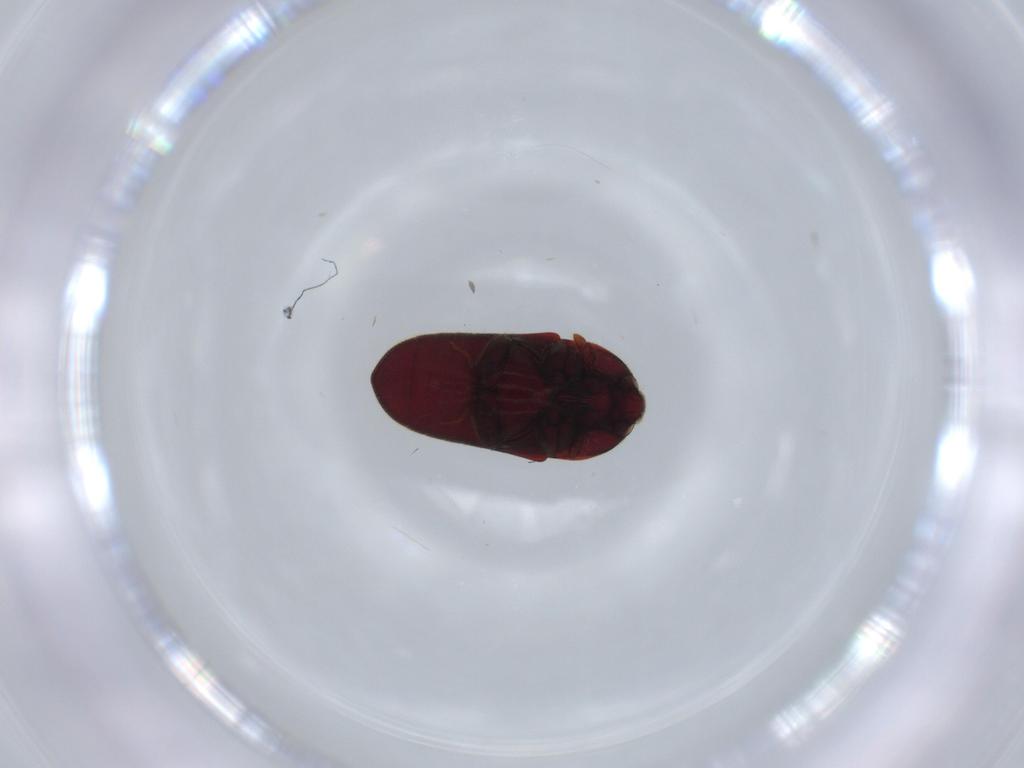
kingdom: Animalia
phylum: Arthropoda
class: Insecta
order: Coleoptera
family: Throscidae
